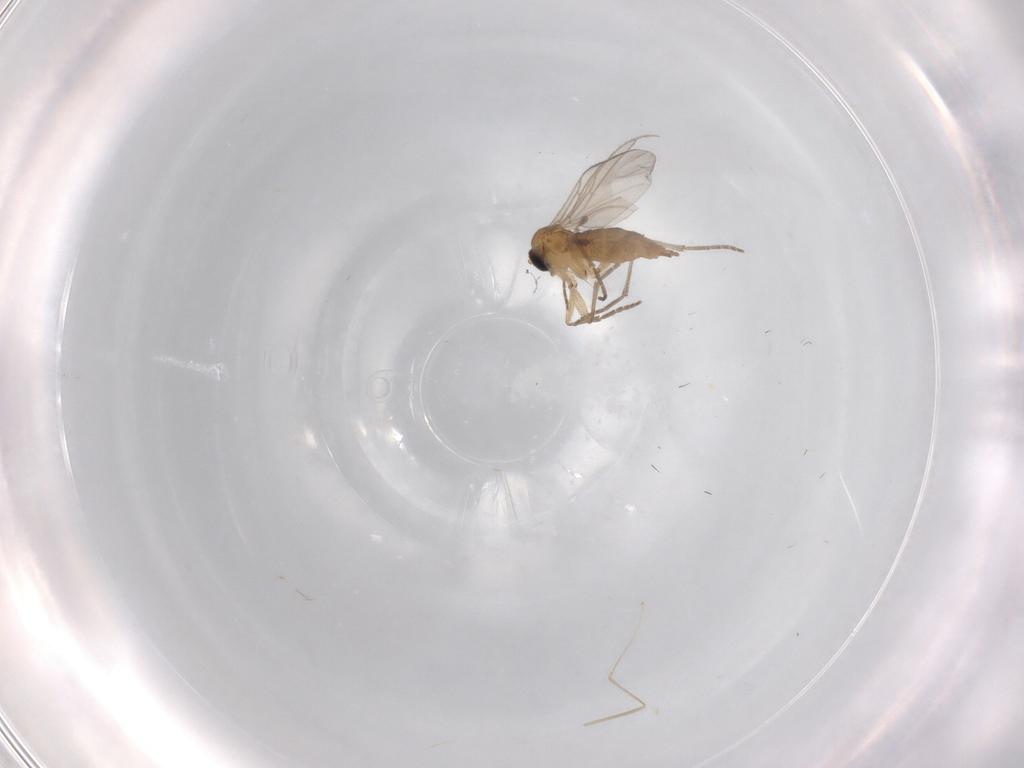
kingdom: Animalia
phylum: Arthropoda
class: Insecta
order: Diptera
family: Sciaridae
